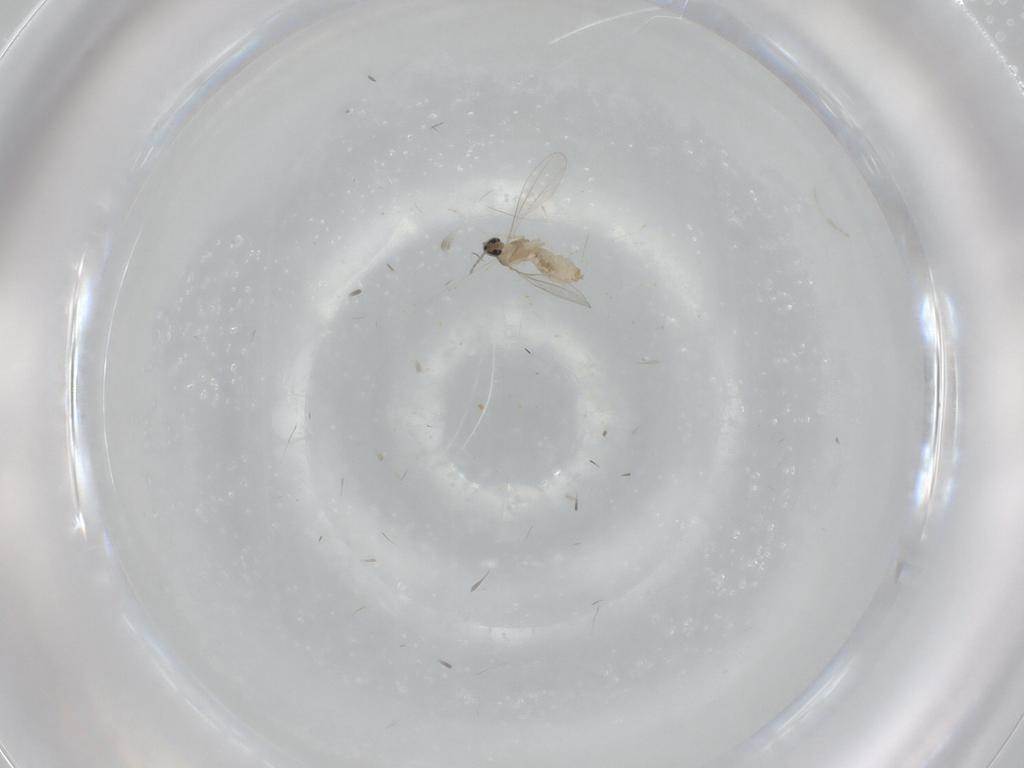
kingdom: Animalia
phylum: Arthropoda
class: Insecta
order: Diptera
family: Cecidomyiidae
